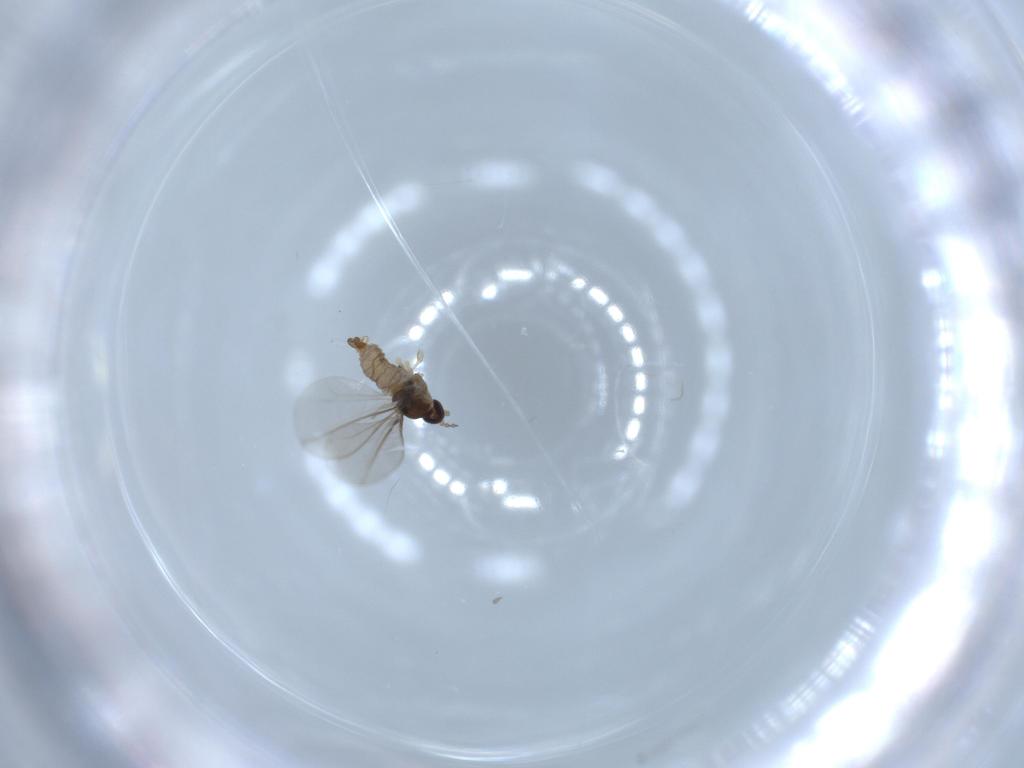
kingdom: Animalia
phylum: Arthropoda
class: Insecta
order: Diptera
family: Cecidomyiidae
